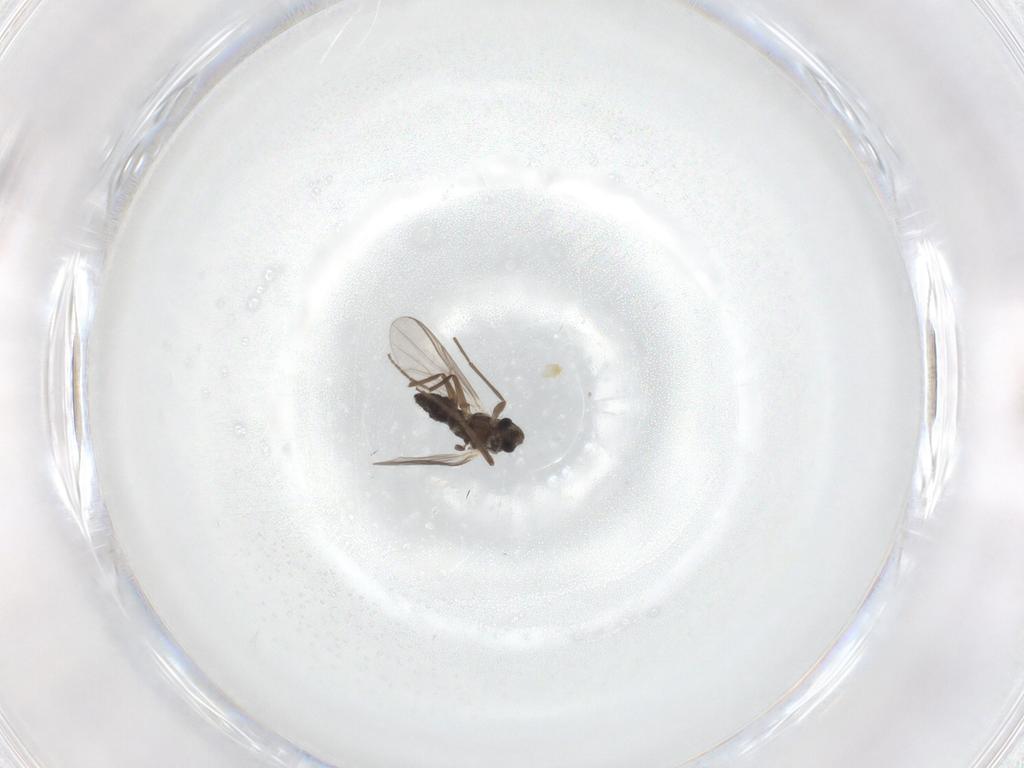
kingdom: Animalia
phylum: Arthropoda
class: Insecta
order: Diptera
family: Chironomidae
